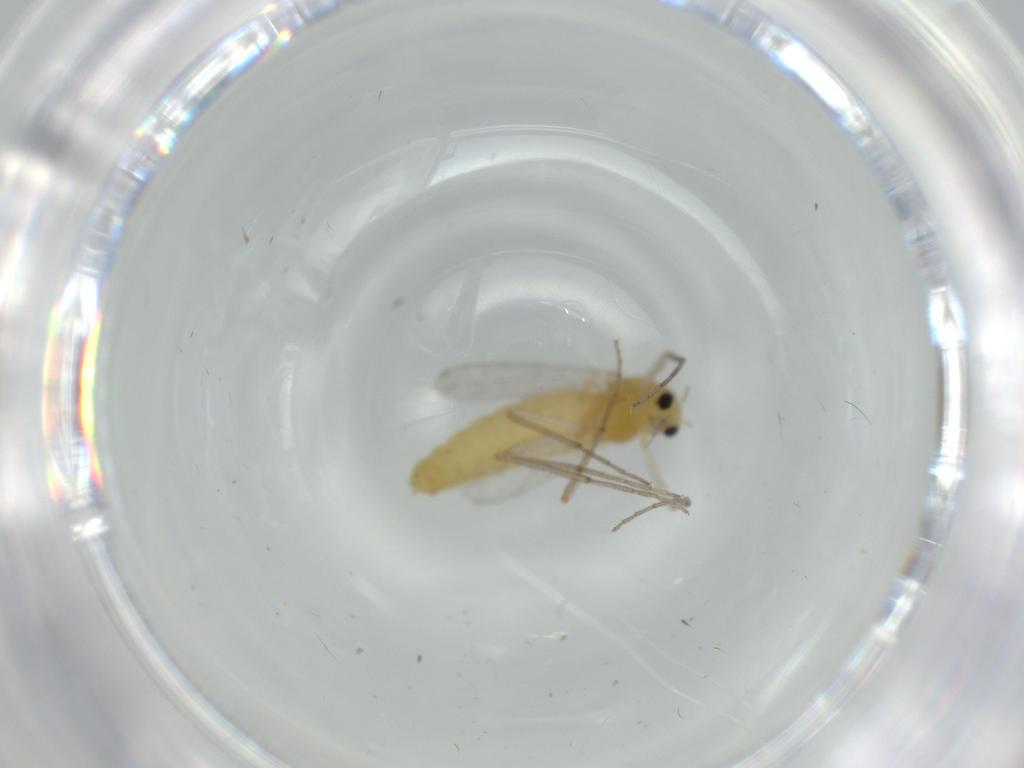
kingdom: Animalia
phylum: Arthropoda
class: Insecta
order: Diptera
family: Chironomidae
